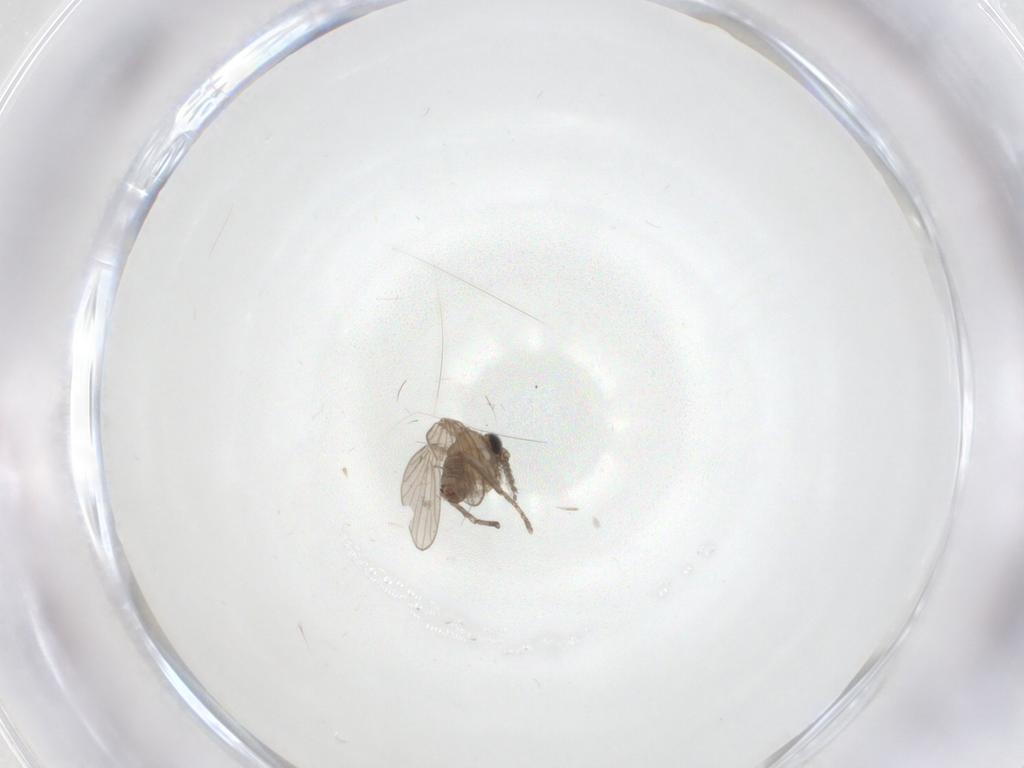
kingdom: Animalia
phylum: Arthropoda
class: Insecta
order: Diptera
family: Psychodidae
